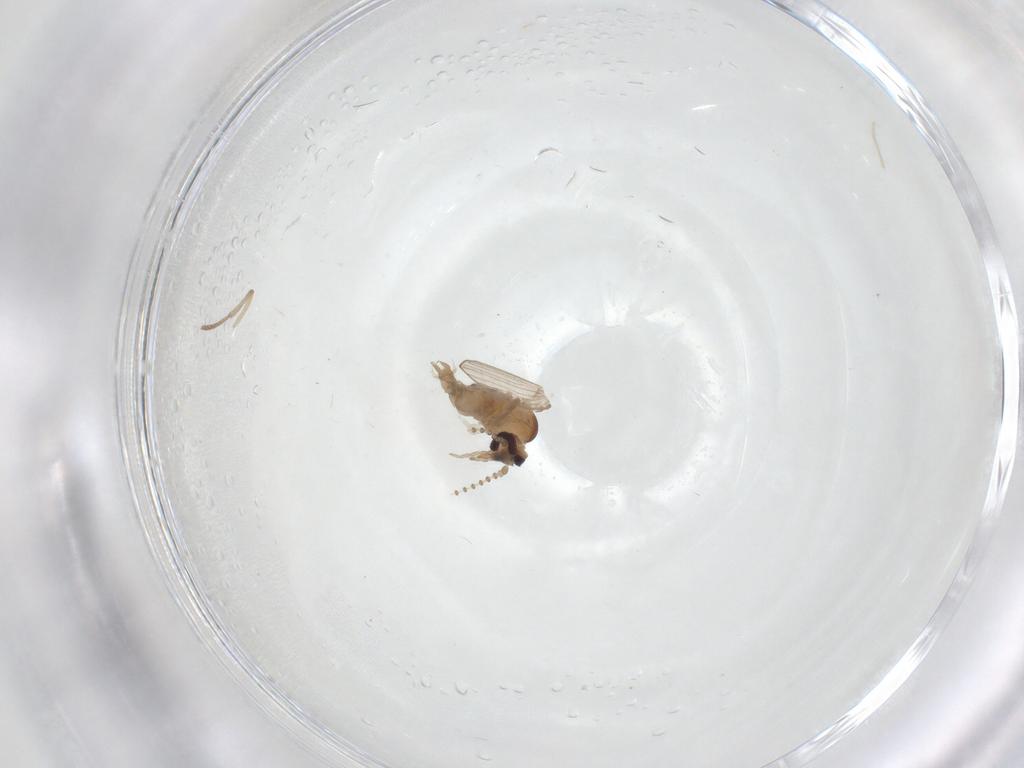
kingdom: Animalia
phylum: Arthropoda
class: Insecta
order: Diptera
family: Psychodidae
